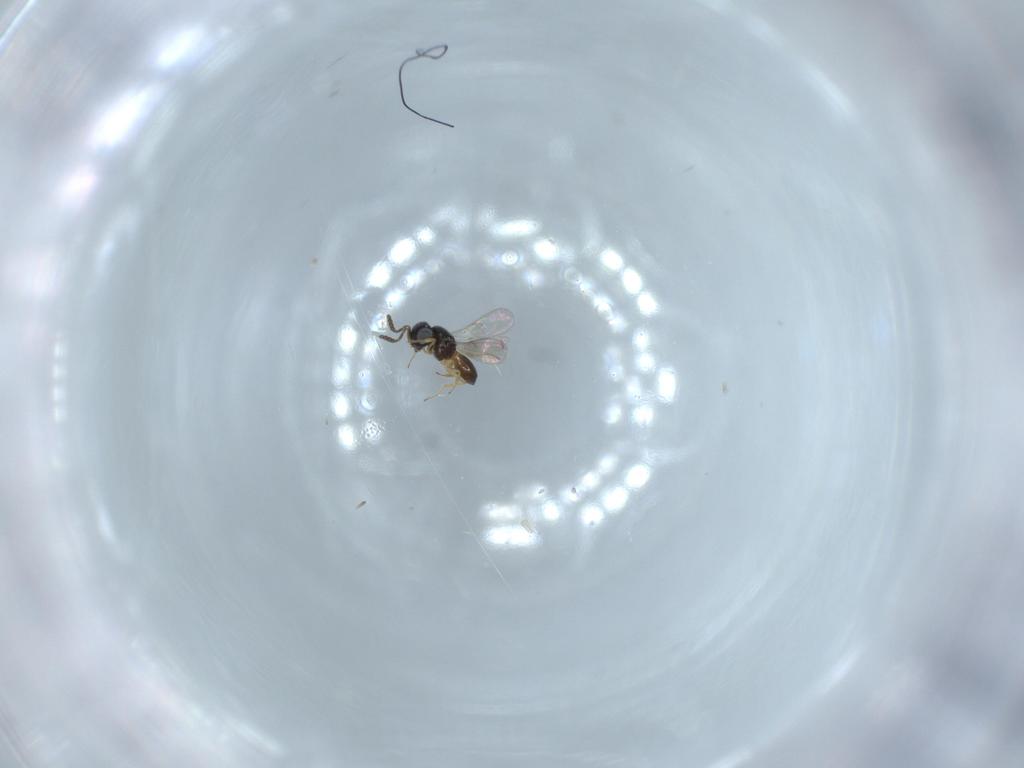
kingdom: Animalia
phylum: Arthropoda
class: Insecta
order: Hymenoptera
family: Scelionidae
